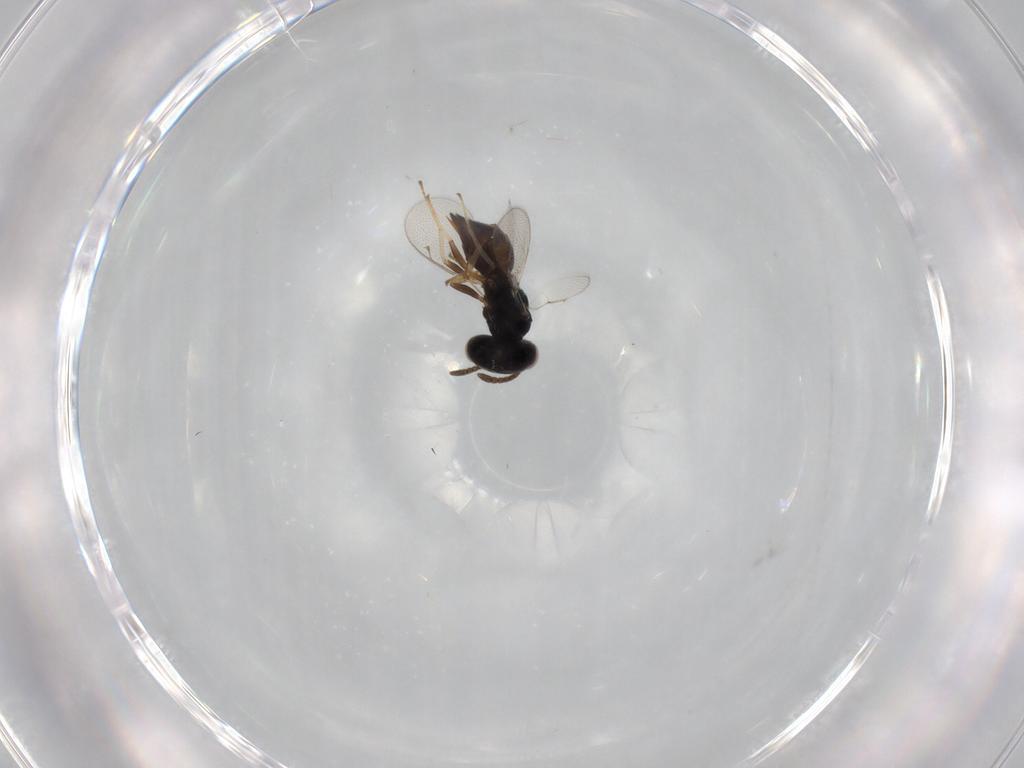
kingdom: Animalia
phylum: Arthropoda
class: Insecta
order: Hymenoptera
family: Pteromalidae
